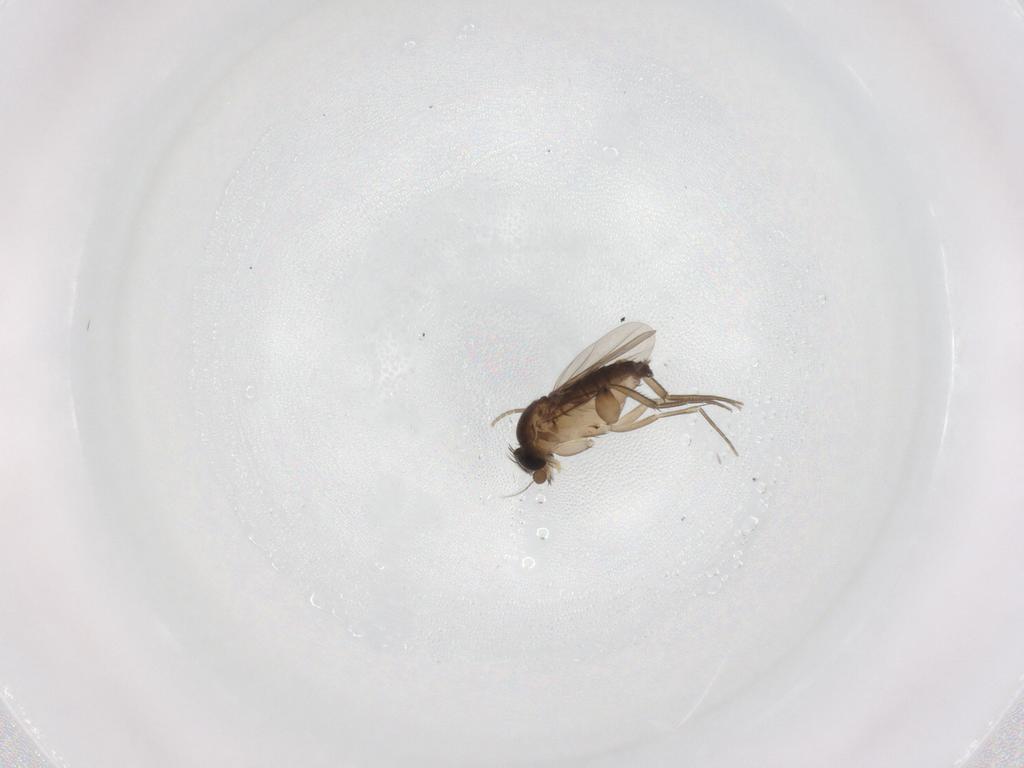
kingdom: Animalia
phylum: Arthropoda
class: Insecta
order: Diptera
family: Phoridae
